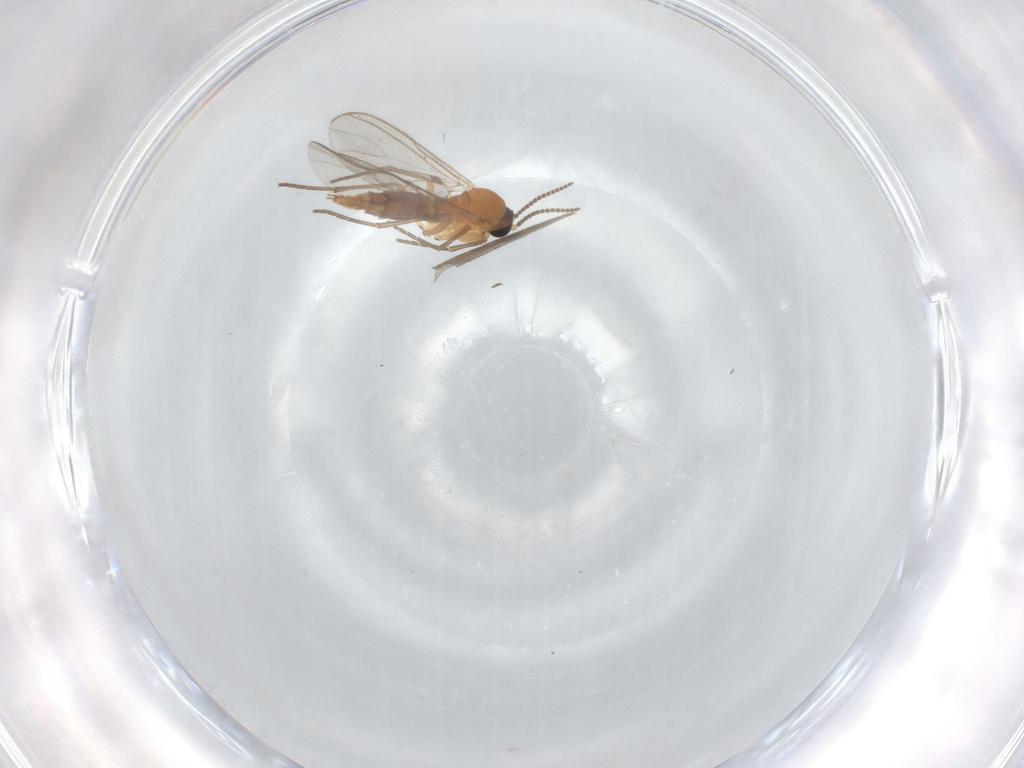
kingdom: Animalia
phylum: Arthropoda
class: Insecta
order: Diptera
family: Sciaridae
